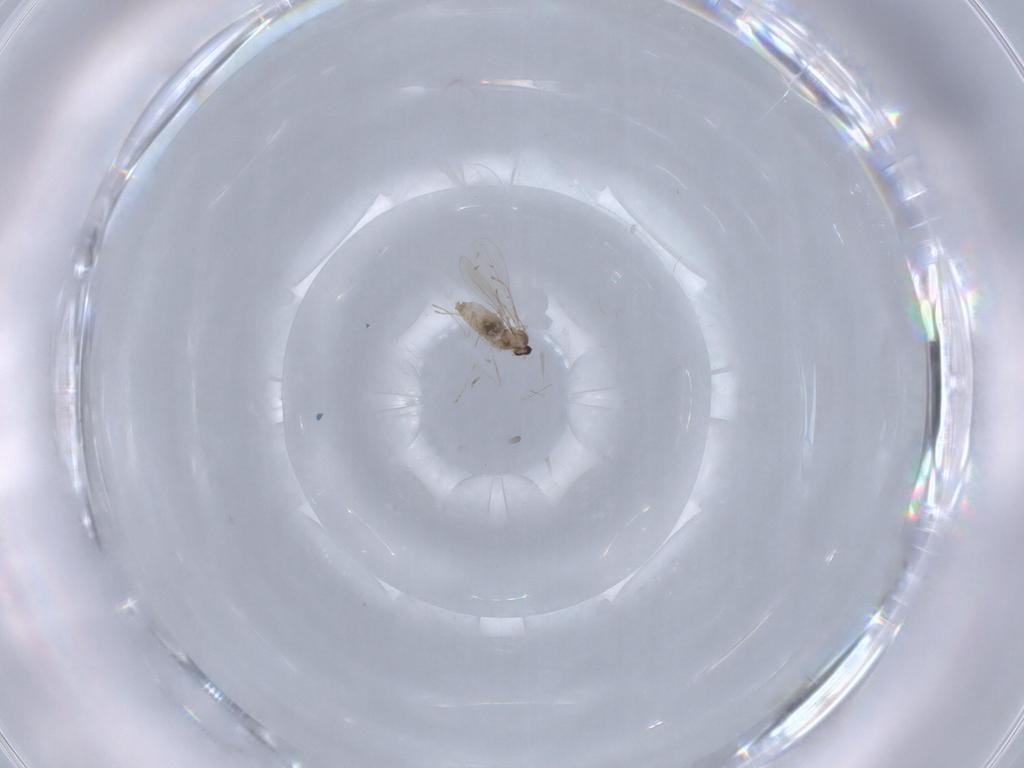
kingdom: Animalia
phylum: Arthropoda
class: Insecta
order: Diptera
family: Cecidomyiidae
